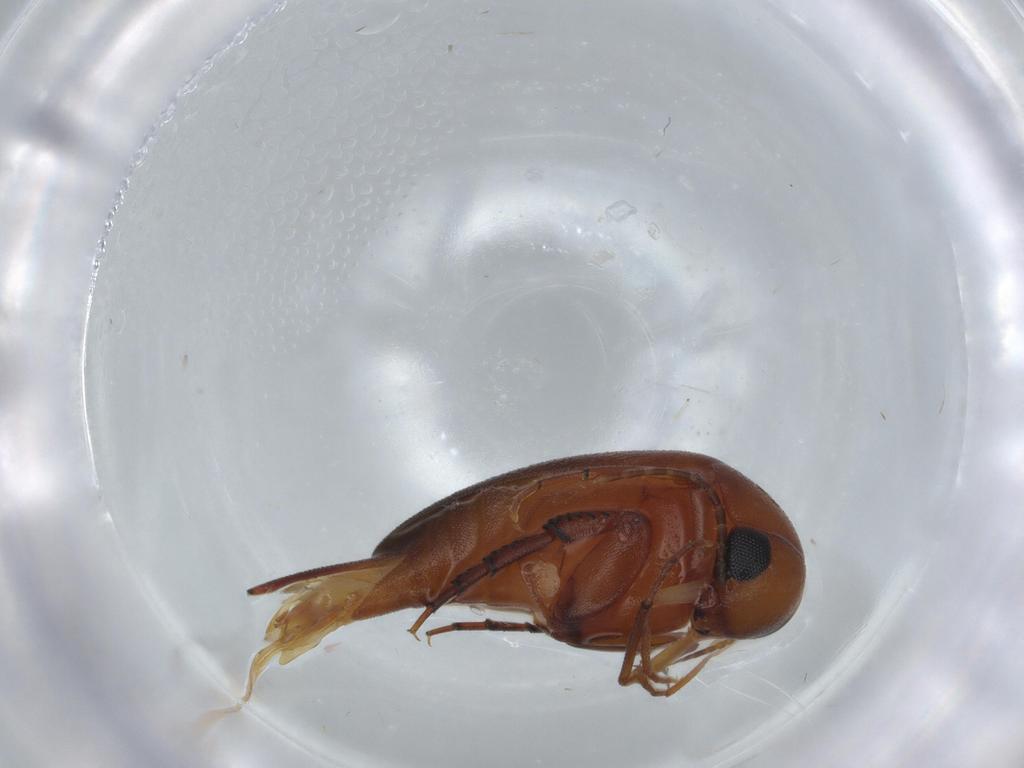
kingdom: Animalia
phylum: Arthropoda
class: Insecta
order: Coleoptera
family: Mordellidae
